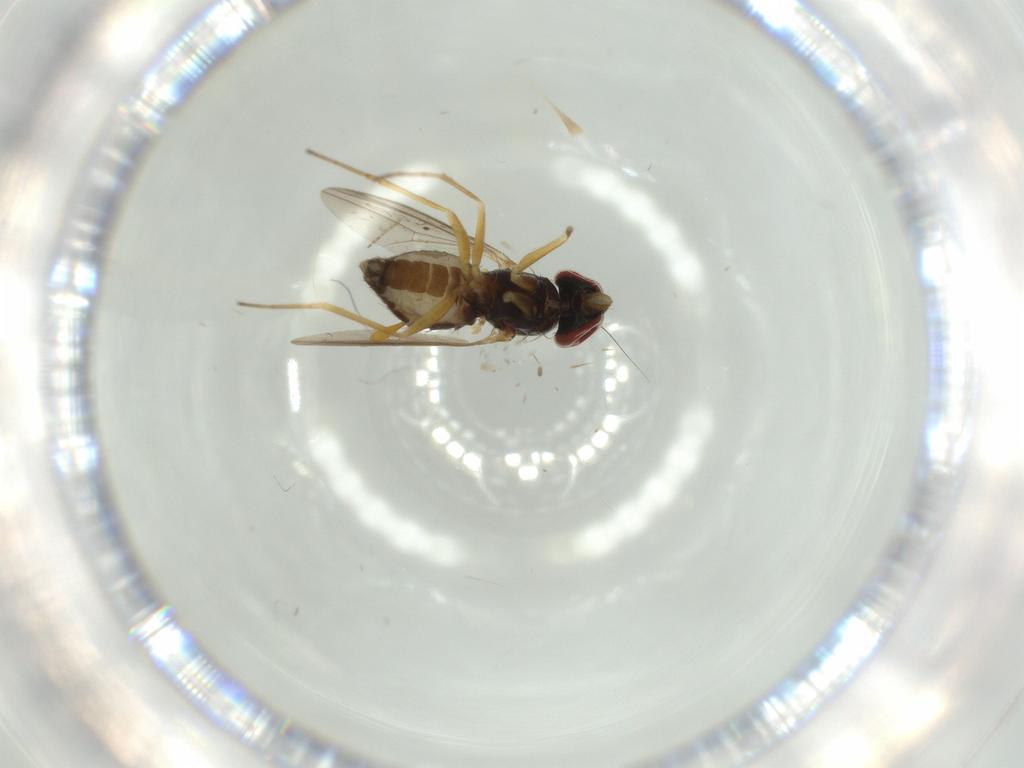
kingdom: Animalia
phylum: Arthropoda
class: Insecta
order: Diptera
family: Dolichopodidae
